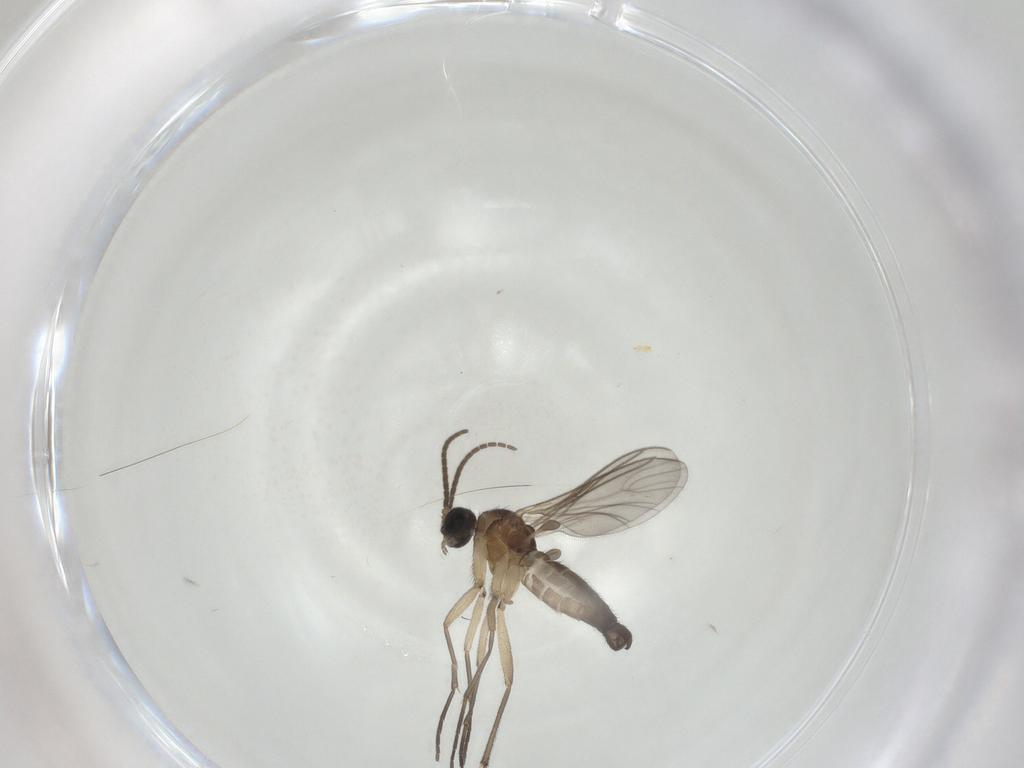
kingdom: Animalia
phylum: Arthropoda
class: Insecta
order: Diptera
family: Sciaridae
